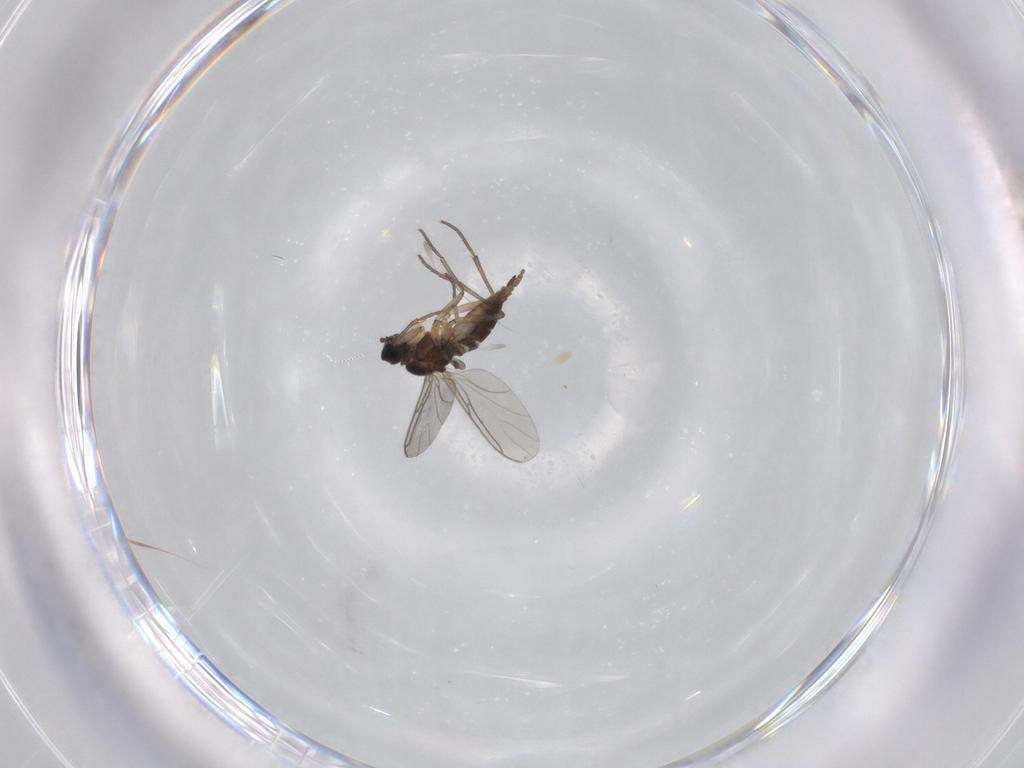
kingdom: Animalia
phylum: Arthropoda
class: Insecta
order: Diptera
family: Sciaridae
